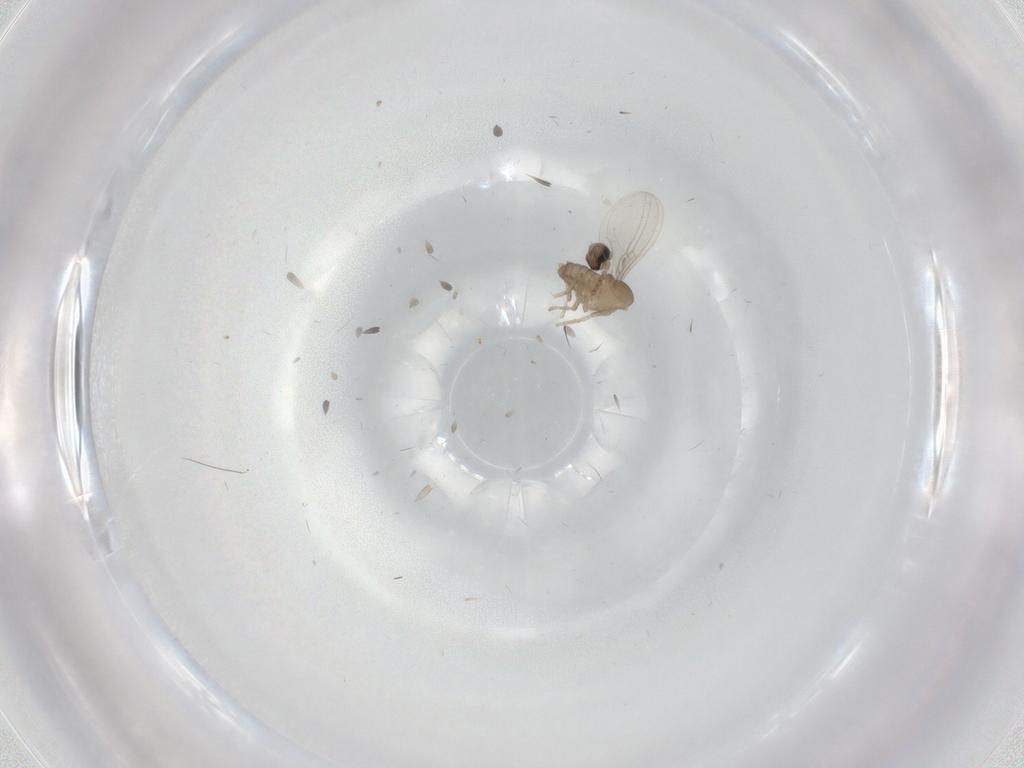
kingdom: Animalia
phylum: Arthropoda
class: Insecta
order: Diptera
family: Cecidomyiidae
